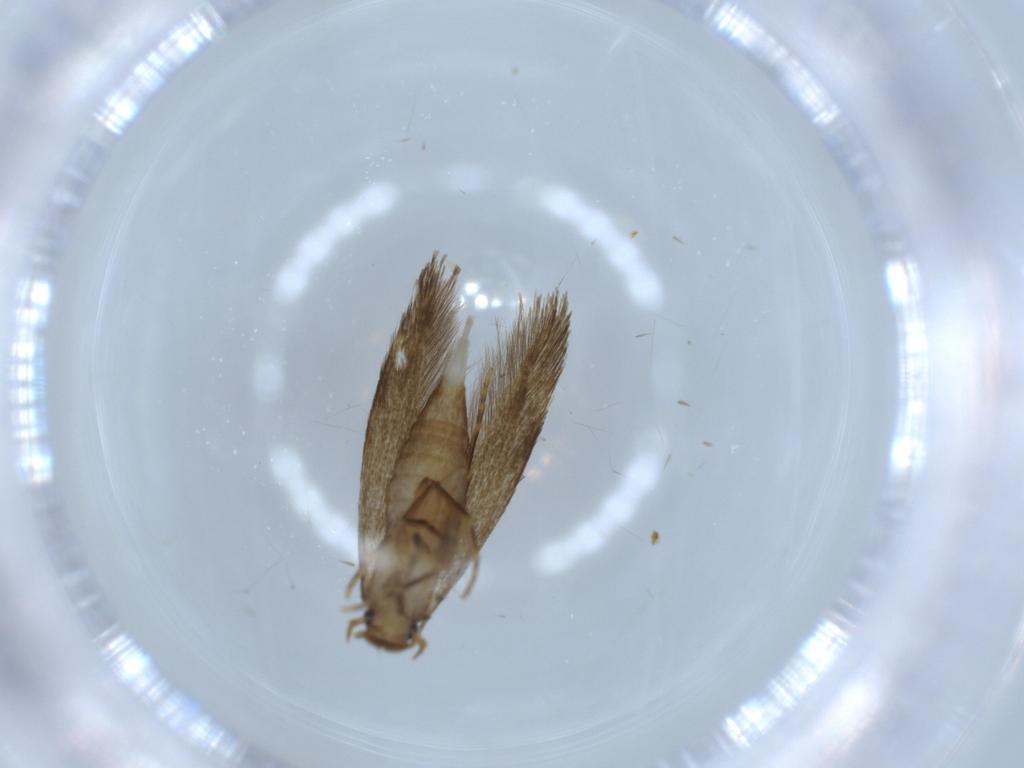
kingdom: Animalia
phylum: Arthropoda
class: Insecta
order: Lepidoptera
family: Tineidae
